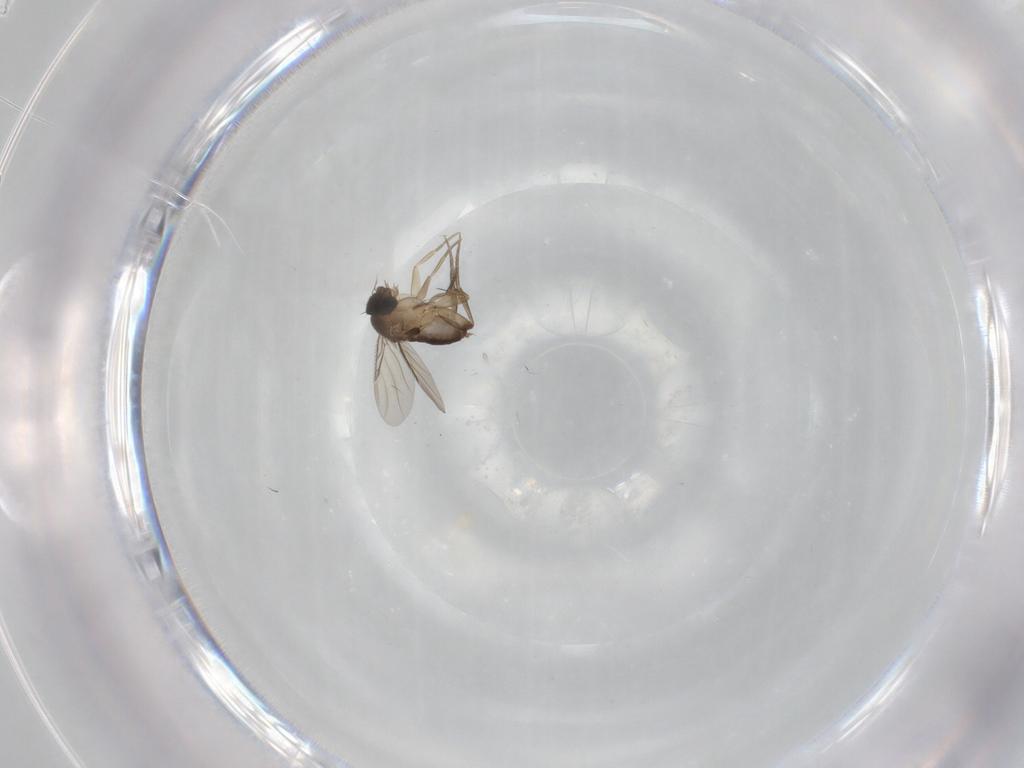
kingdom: Animalia
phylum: Arthropoda
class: Insecta
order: Diptera
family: Phoridae
